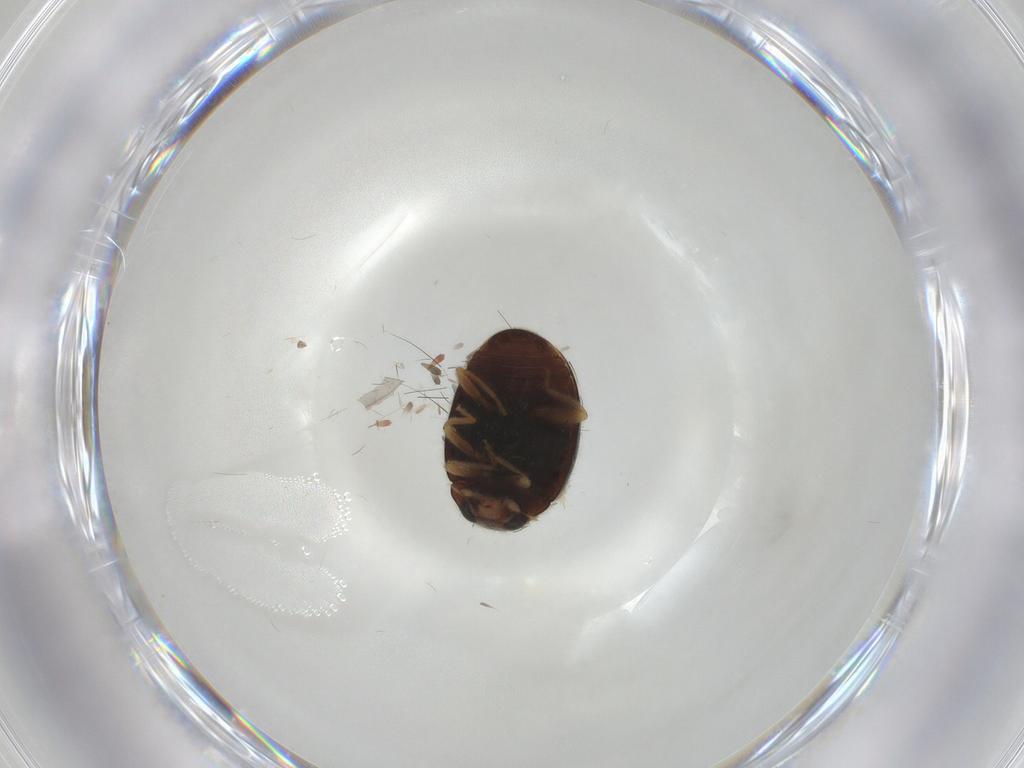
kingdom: Animalia
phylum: Arthropoda
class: Insecta
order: Coleoptera
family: Coccinellidae
